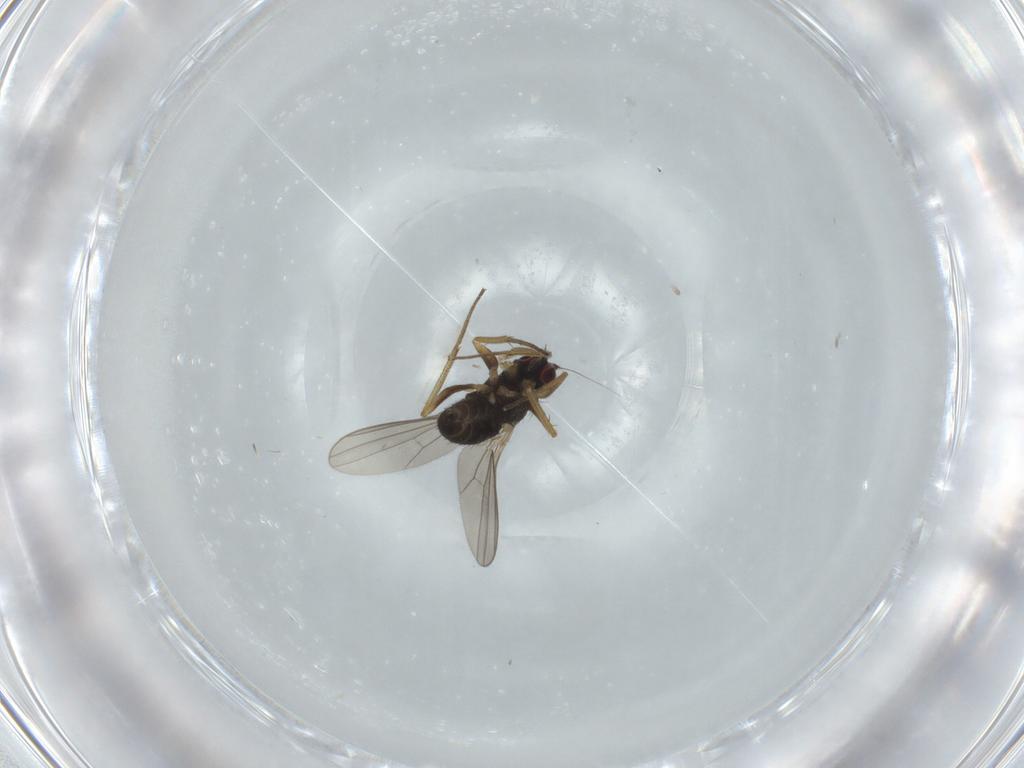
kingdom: Animalia
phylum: Arthropoda
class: Insecta
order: Diptera
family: Dolichopodidae
